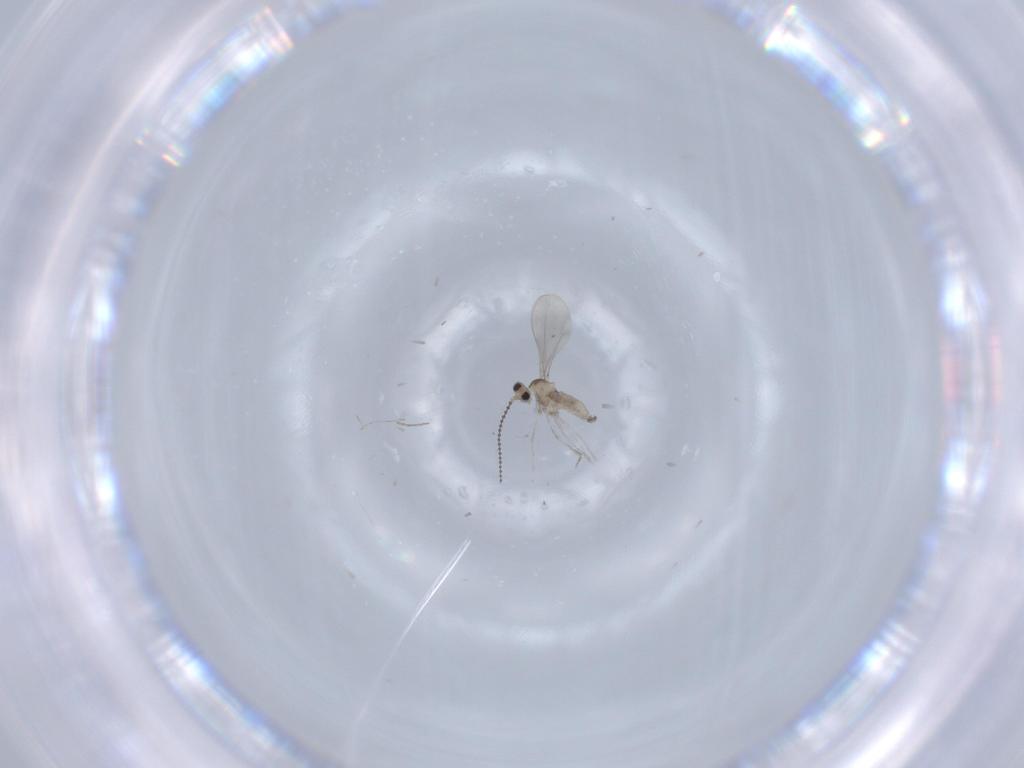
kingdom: Animalia
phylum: Arthropoda
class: Insecta
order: Diptera
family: Cecidomyiidae
